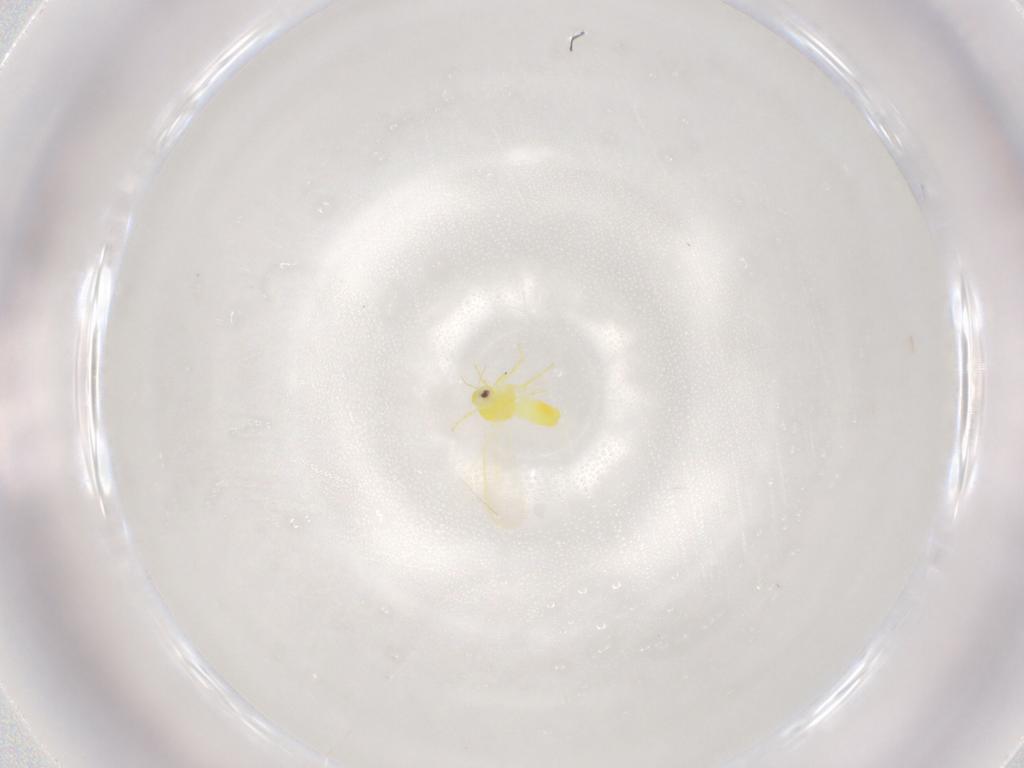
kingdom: Animalia
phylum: Arthropoda
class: Insecta
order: Hemiptera
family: Aleyrodidae
